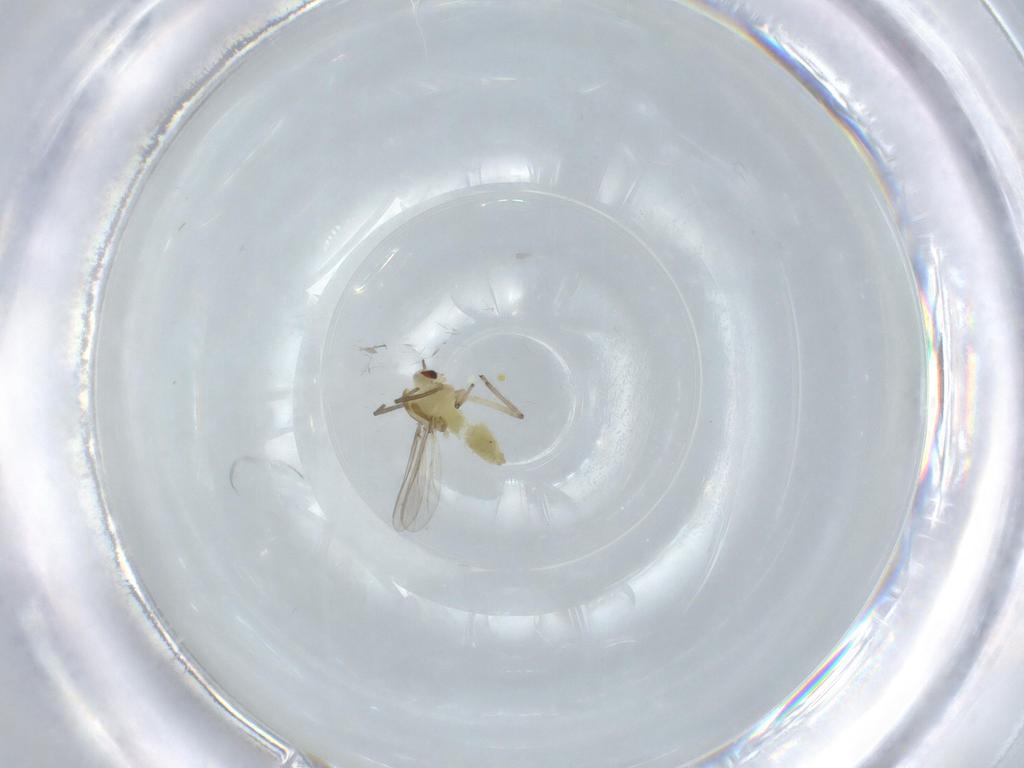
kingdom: Animalia
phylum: Arthropoda
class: Insecta
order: Diptera
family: Chironomidae
